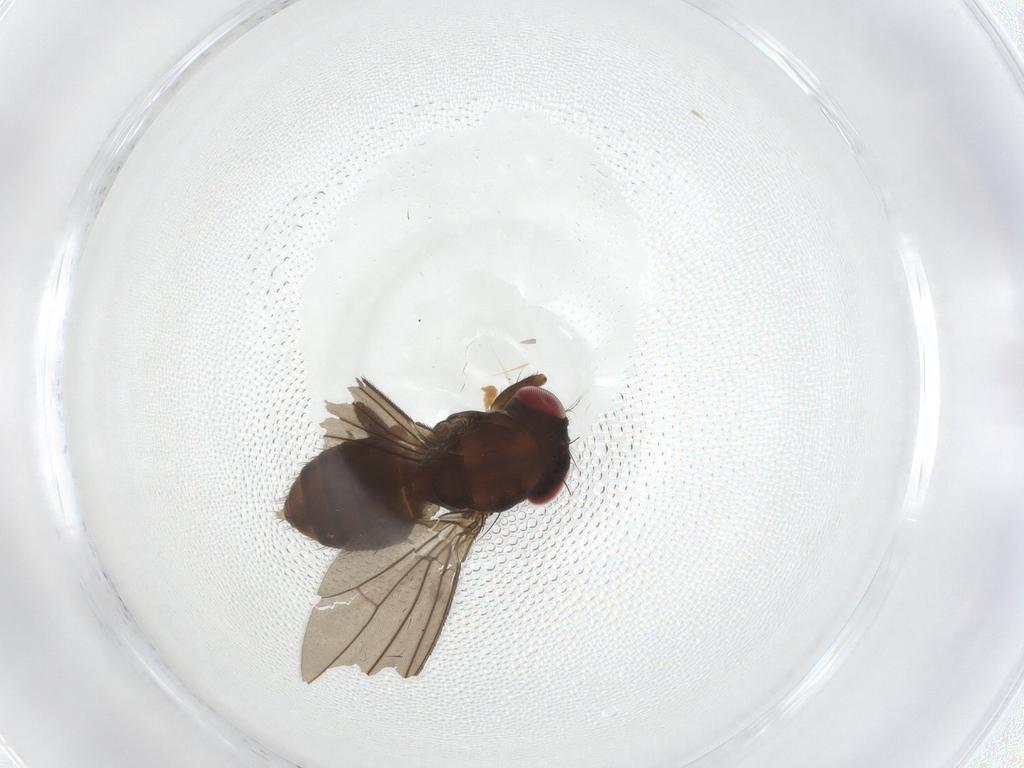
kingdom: Animalia
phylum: Arthropoda
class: Insecta
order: Diptera
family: Drosophilidae
